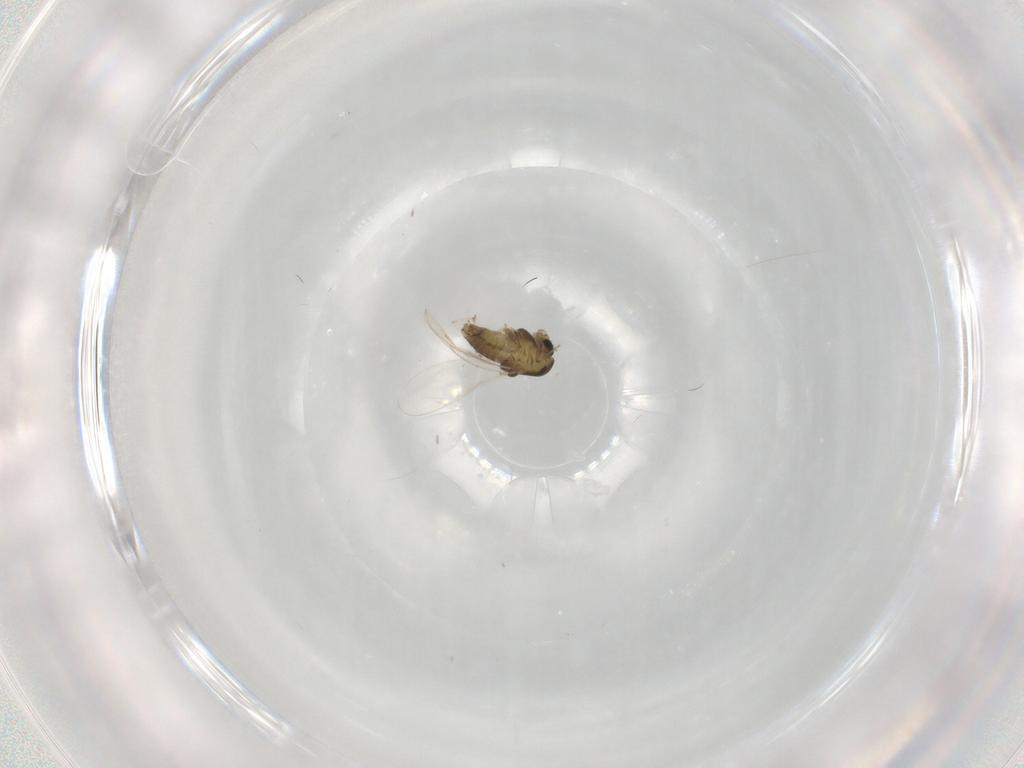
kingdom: Animalia
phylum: Arthropoda
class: Insecta
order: Diptera
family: Chironomidae
